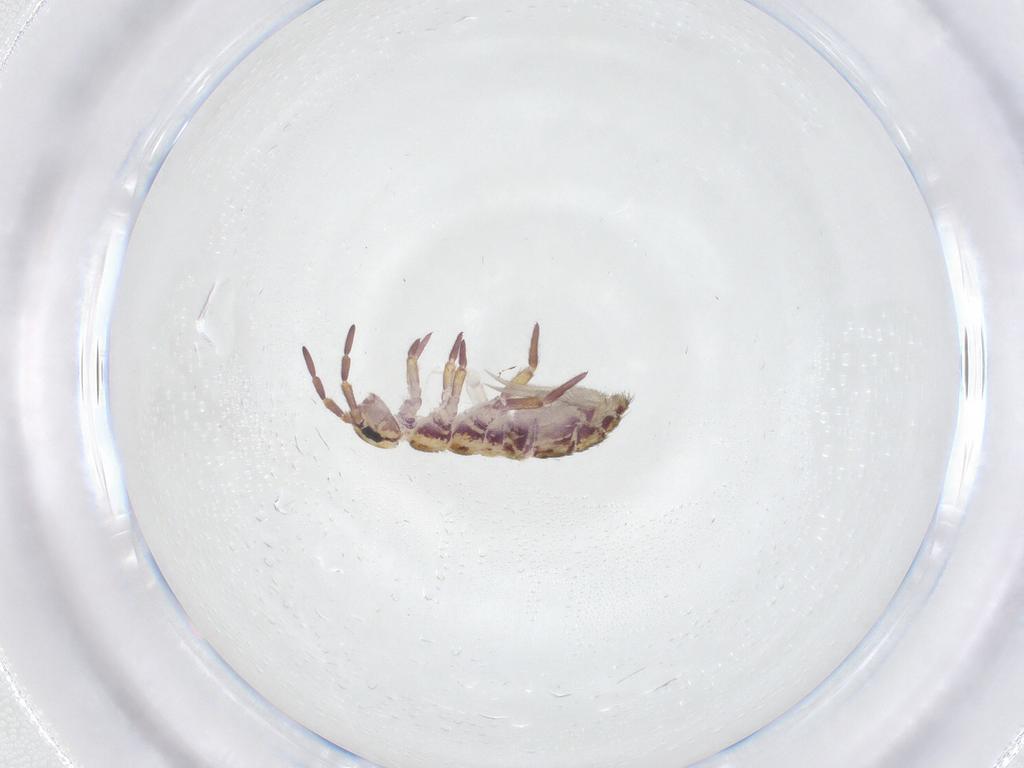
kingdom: Animalia
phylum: Arthropoda
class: Collembola
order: Entomobryomorpha
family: Isotomidae
